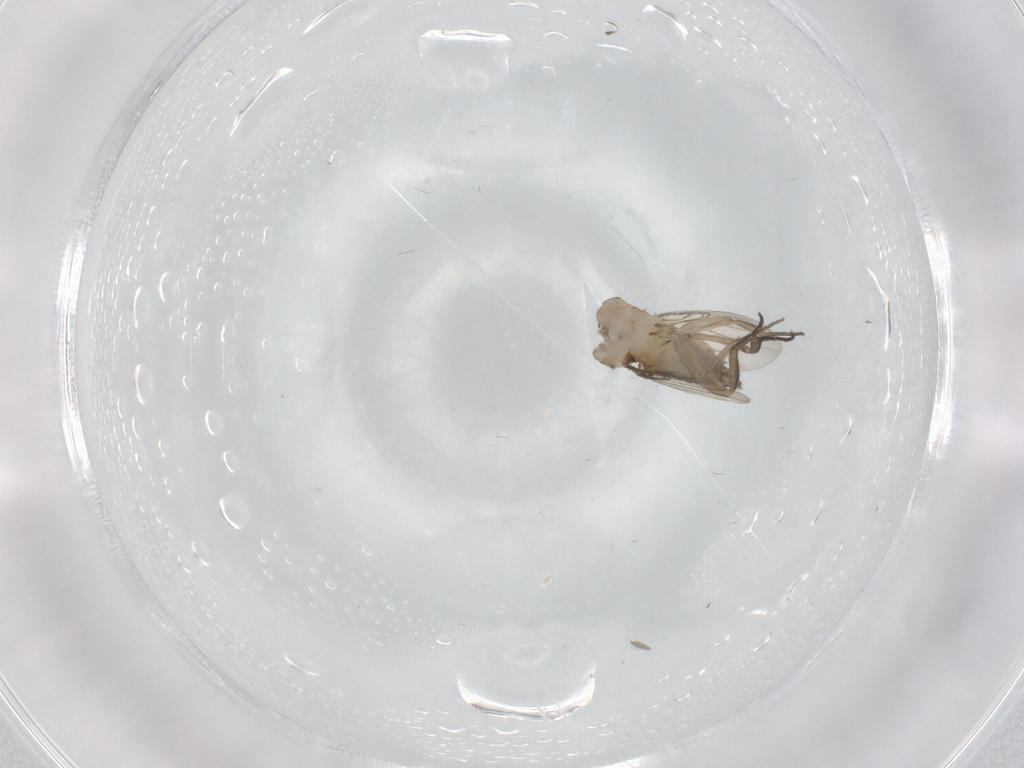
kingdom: Animalia
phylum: Arthropoda
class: Insecta
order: Diptera
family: Phoridae
